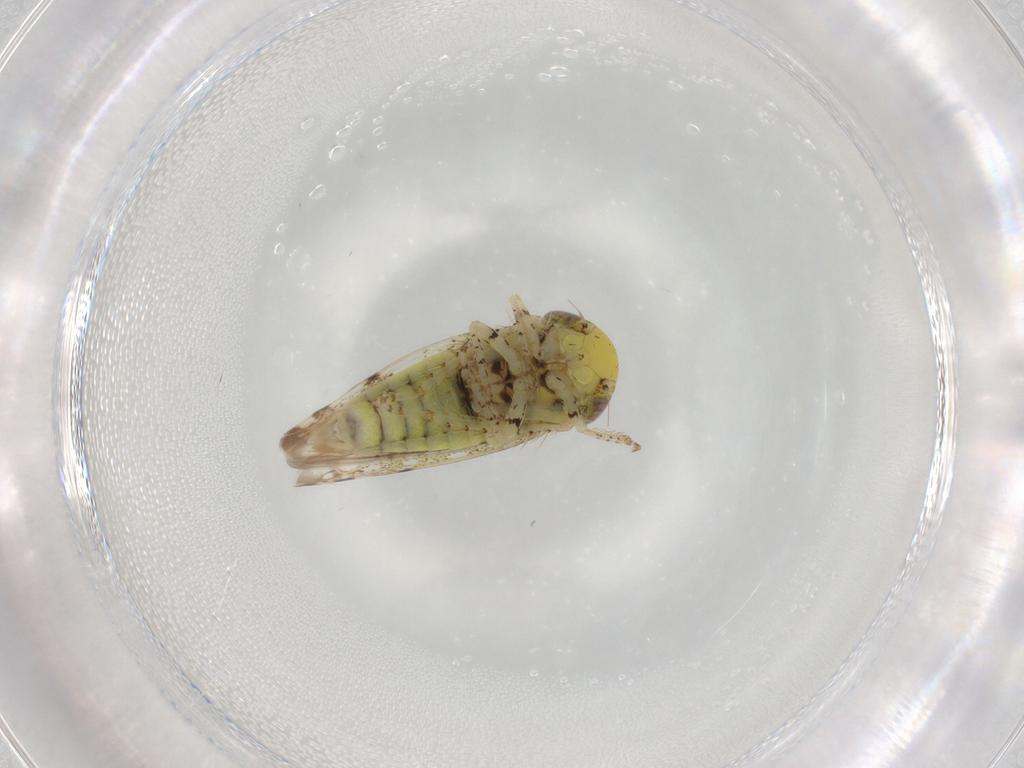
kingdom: Animalia
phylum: Arthropoda
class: Insecta
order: Hemiptera
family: Cicadellidae
